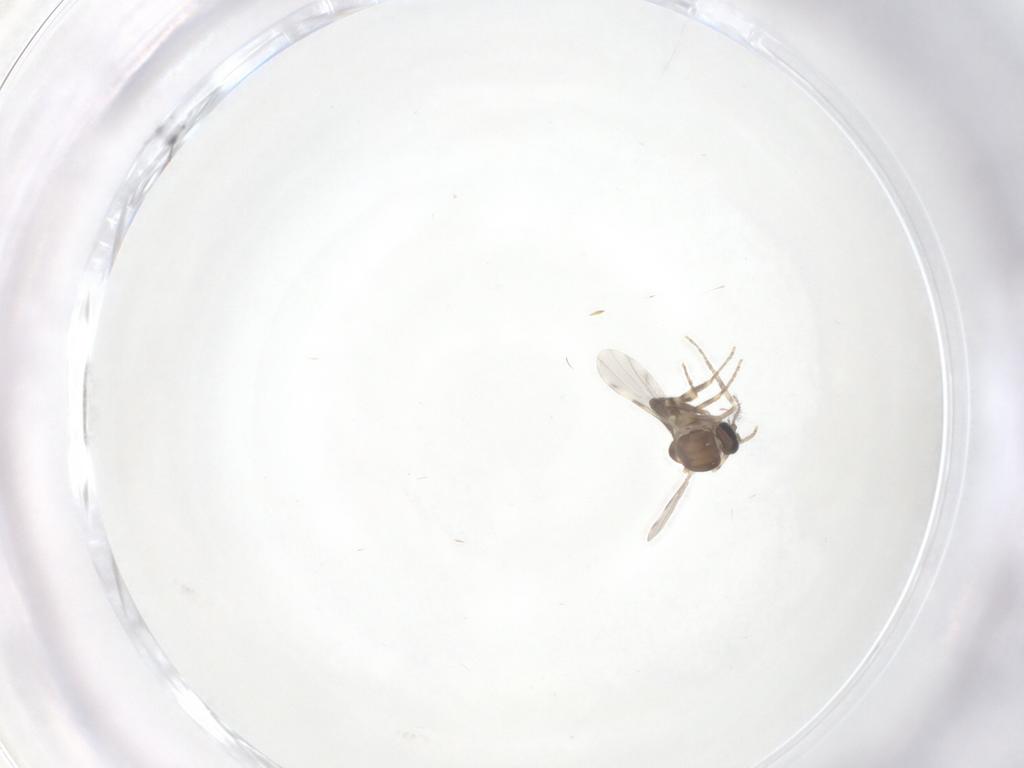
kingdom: Animalia
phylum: Arthropoda
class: Insecta
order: Diptera
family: Ceratopogonidae
